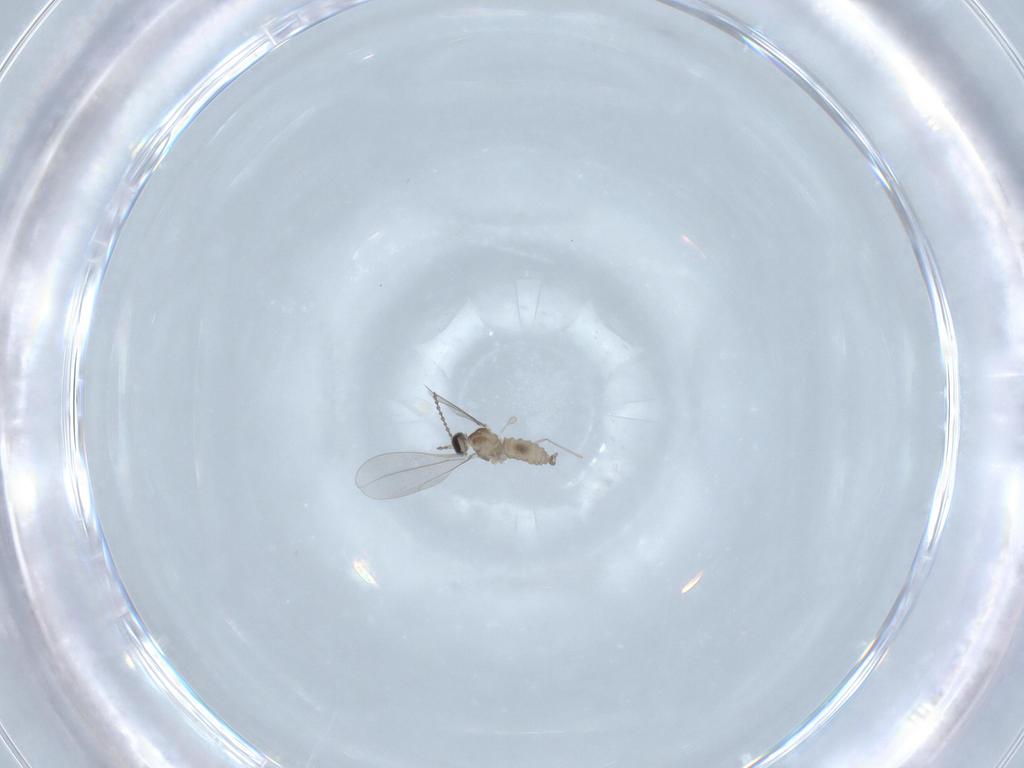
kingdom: Animalia
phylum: Arthropoda
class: Insecta
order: Diptera
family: Cecidomyiidae
